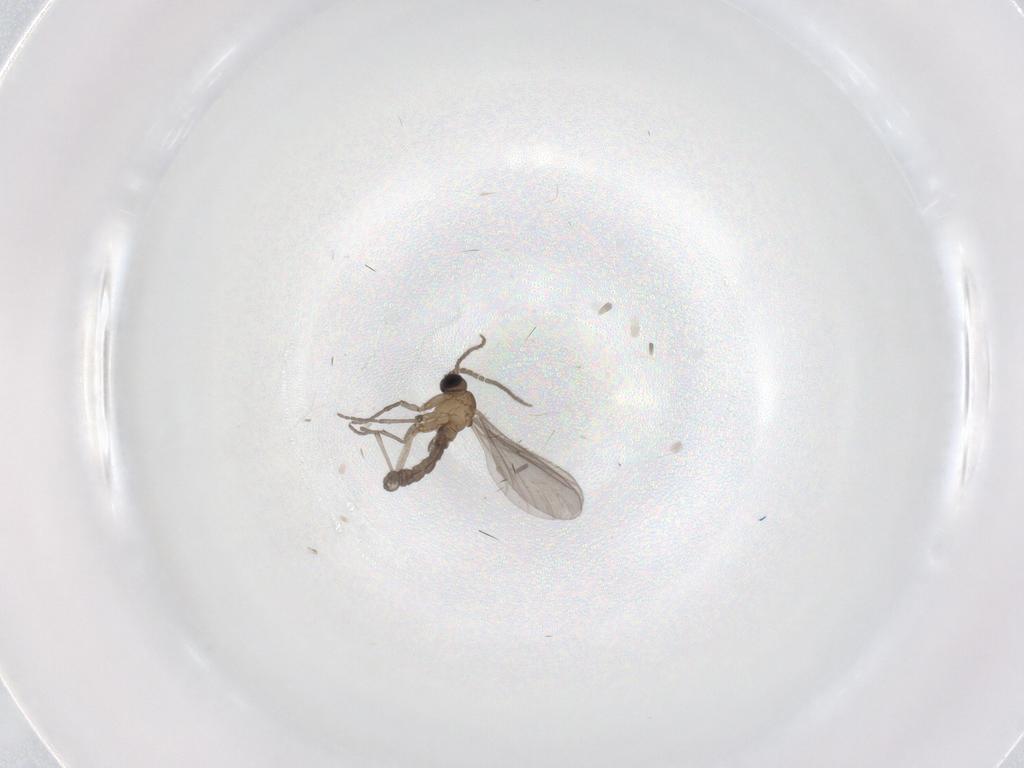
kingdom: Animalia
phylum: Arthropoda
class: Insecta
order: Diptera
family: Sciaridae
